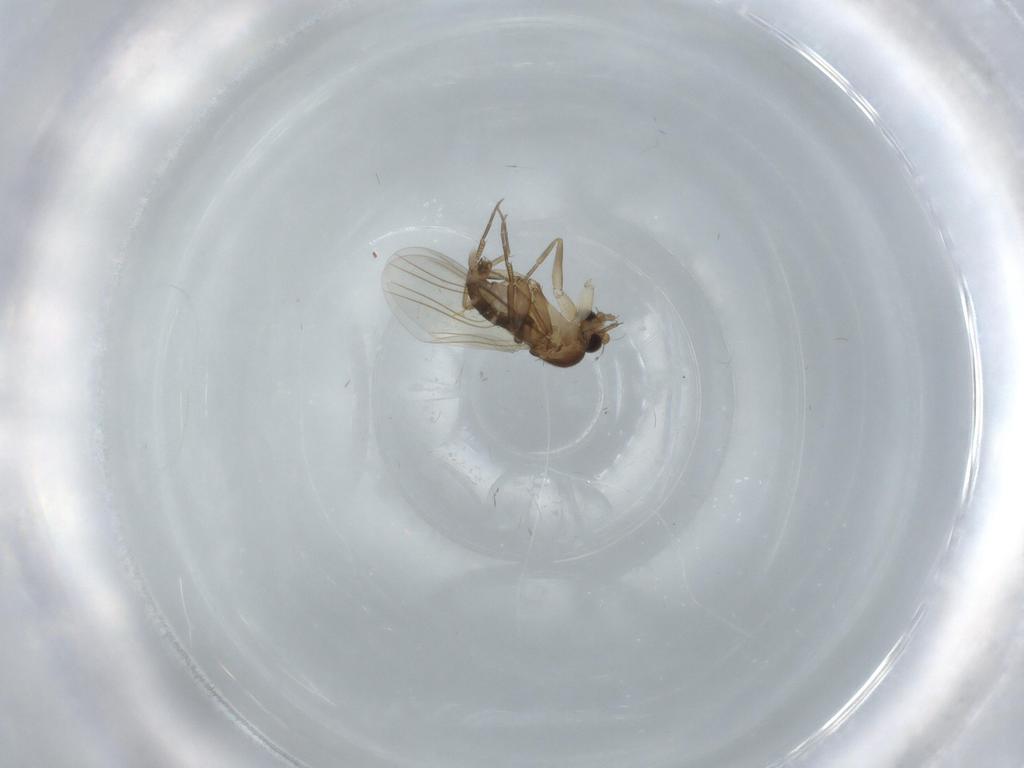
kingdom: Animalia
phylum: Arthropoda
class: Insecta
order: Diptera
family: Phoridae
